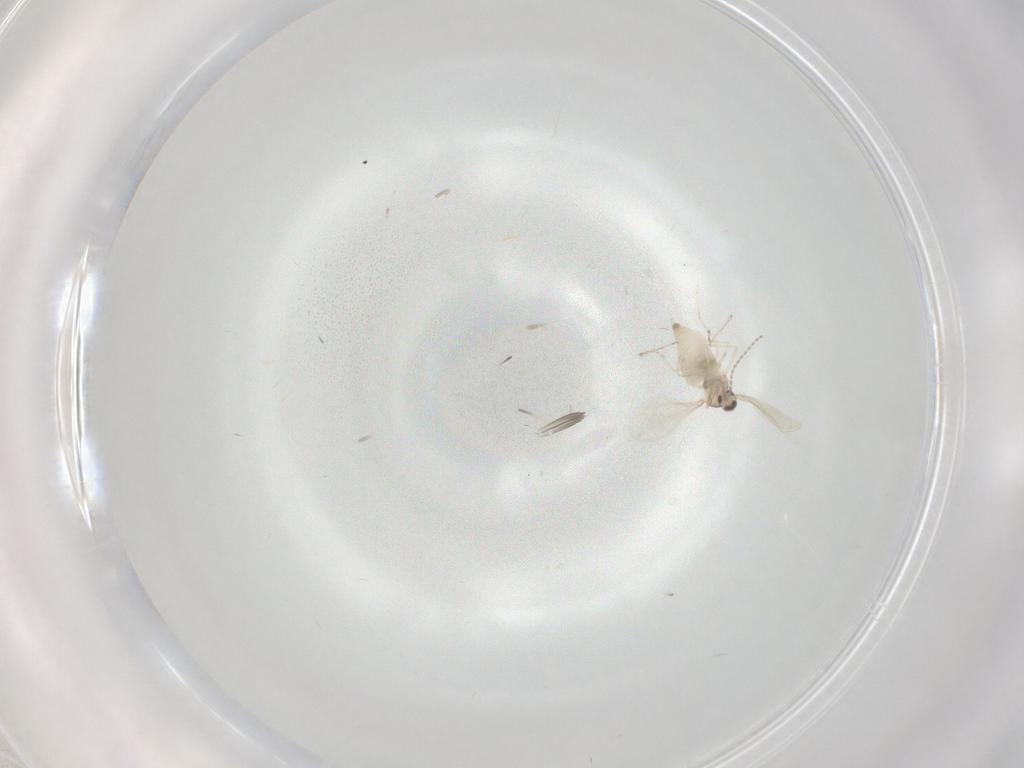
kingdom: Animalia
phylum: Arthropoda
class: Insecta
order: Diptera
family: Cecidomyiidae
